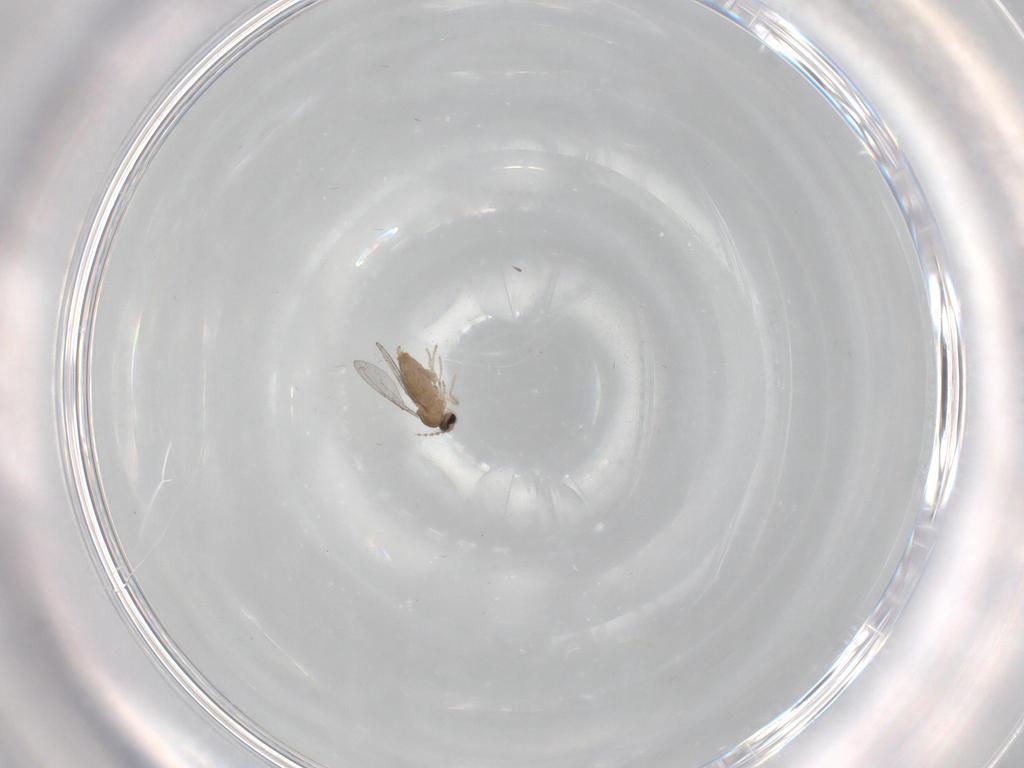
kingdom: Animalia
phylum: Arthropoda
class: Insecta
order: Diptera
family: Cecidomyiidae
